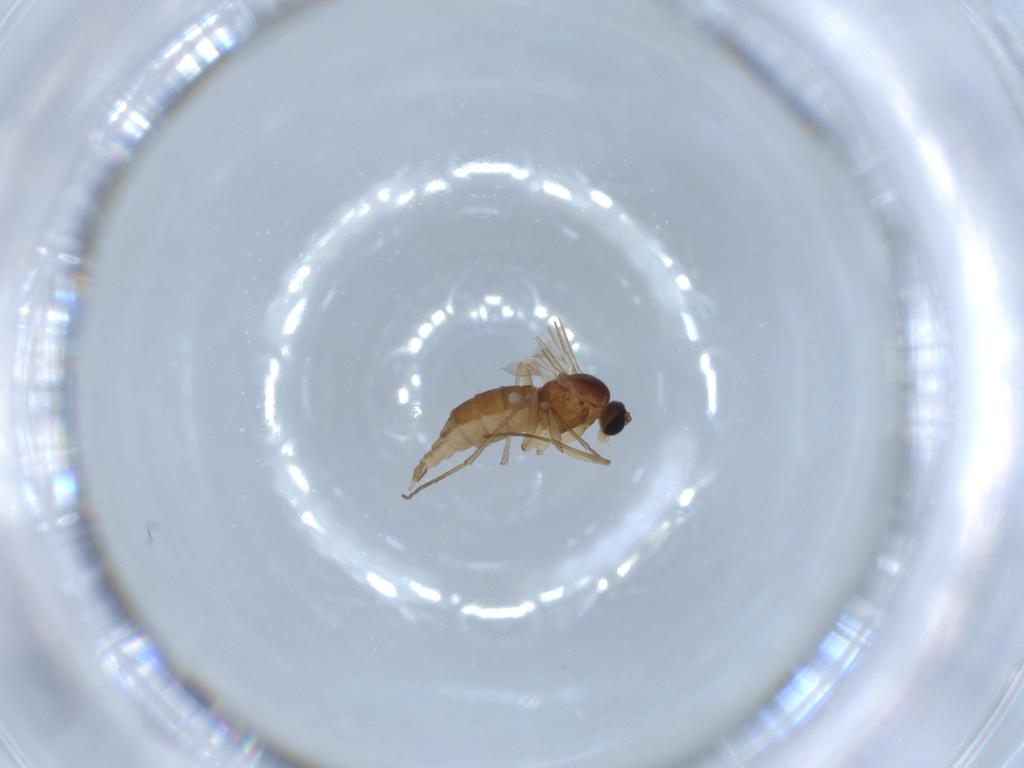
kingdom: Animalia
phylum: Arthropoda
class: Insecta
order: Diptera
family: Sciaridae
